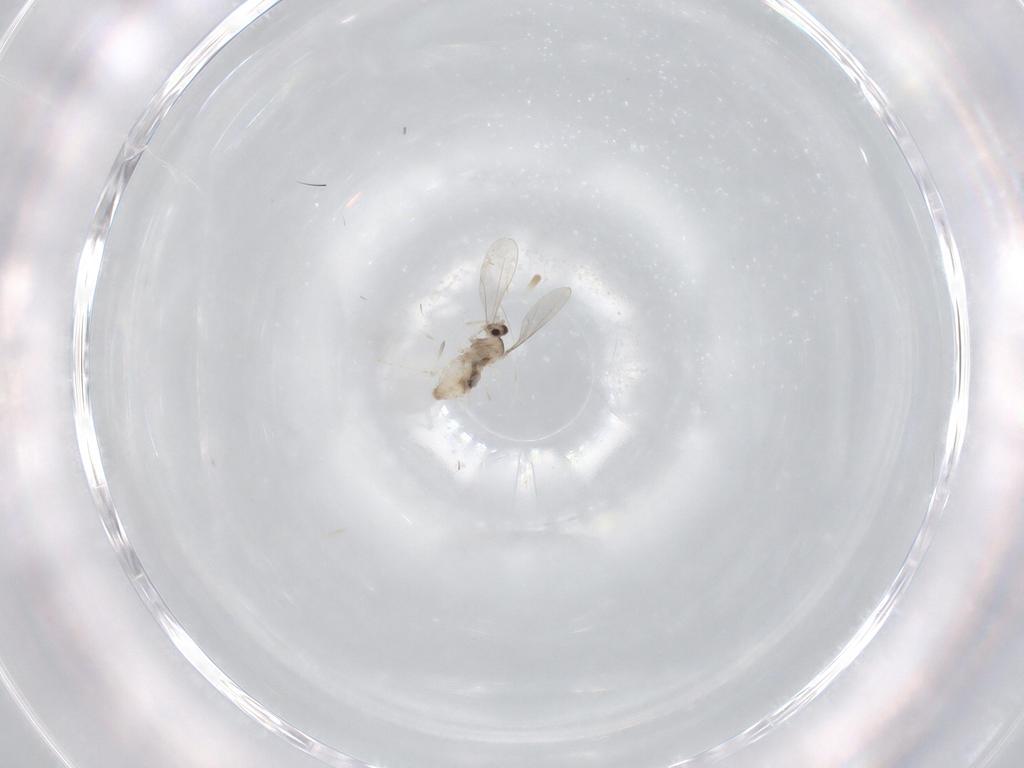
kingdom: Animalia
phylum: Arthropoda
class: Insecta
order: Diptera
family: Cecidomyiidae
